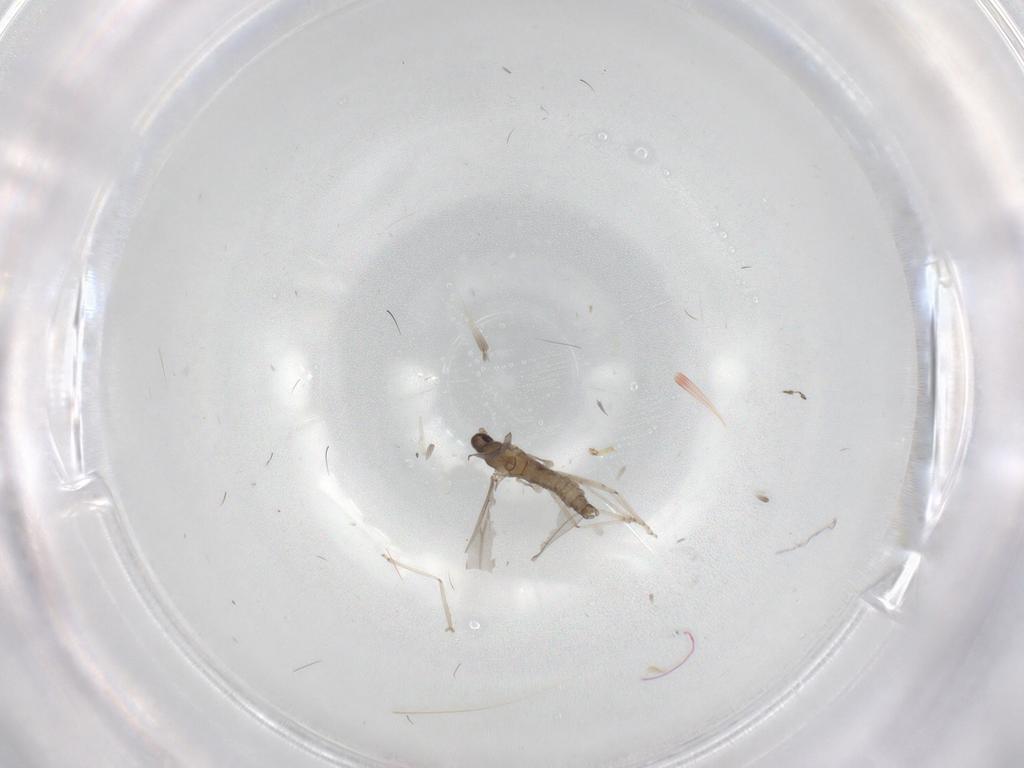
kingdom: Animalia
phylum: Arthropoda
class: Insecta
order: Diptera
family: Cecidomyiidae
